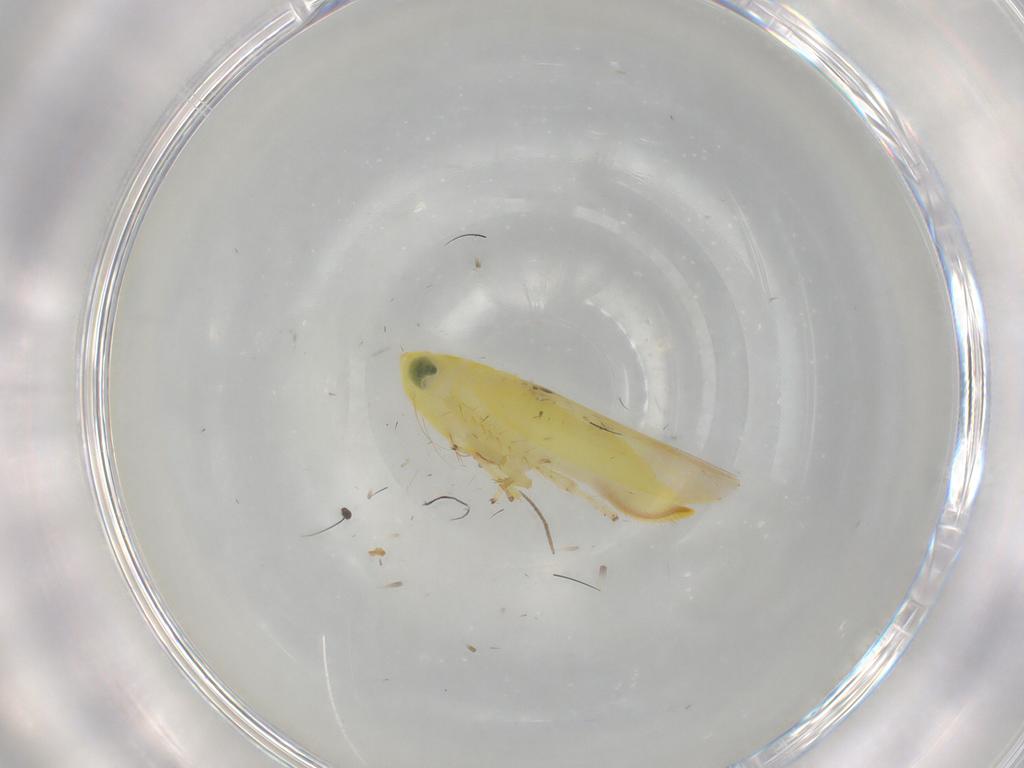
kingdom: Animalia
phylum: Arthropoda
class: Insecta
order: Hemiptera
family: Cicadellidae
